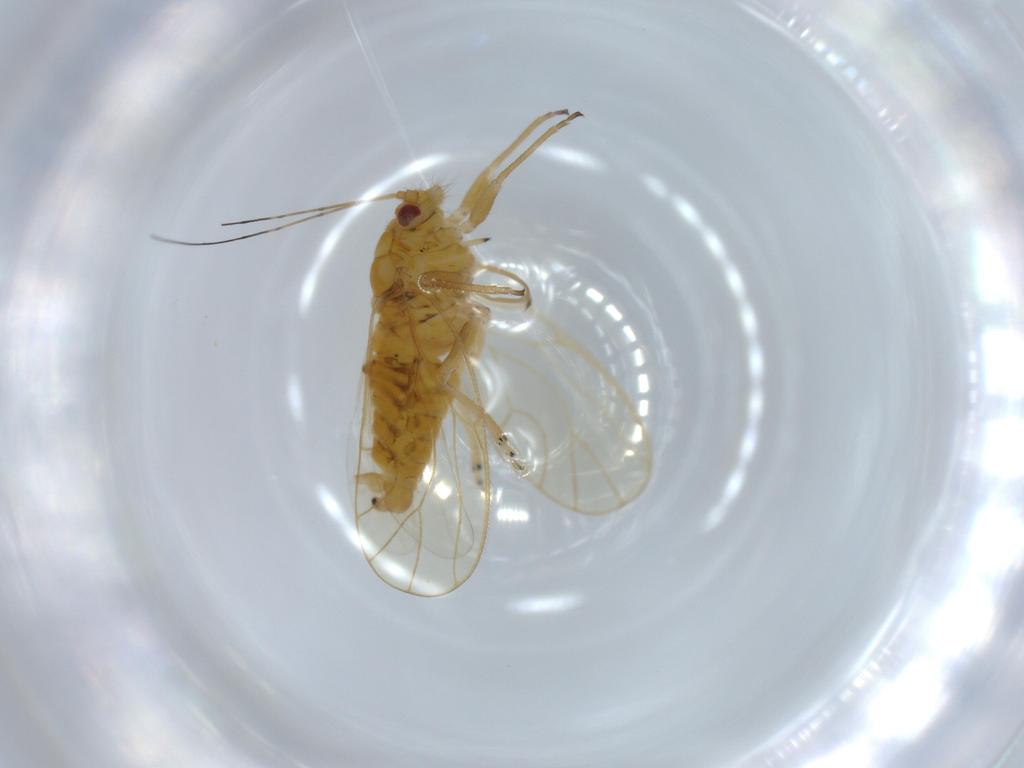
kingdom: Animalia
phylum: Arthropoda
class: Insecta
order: Hemiptera
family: Psyllidae
